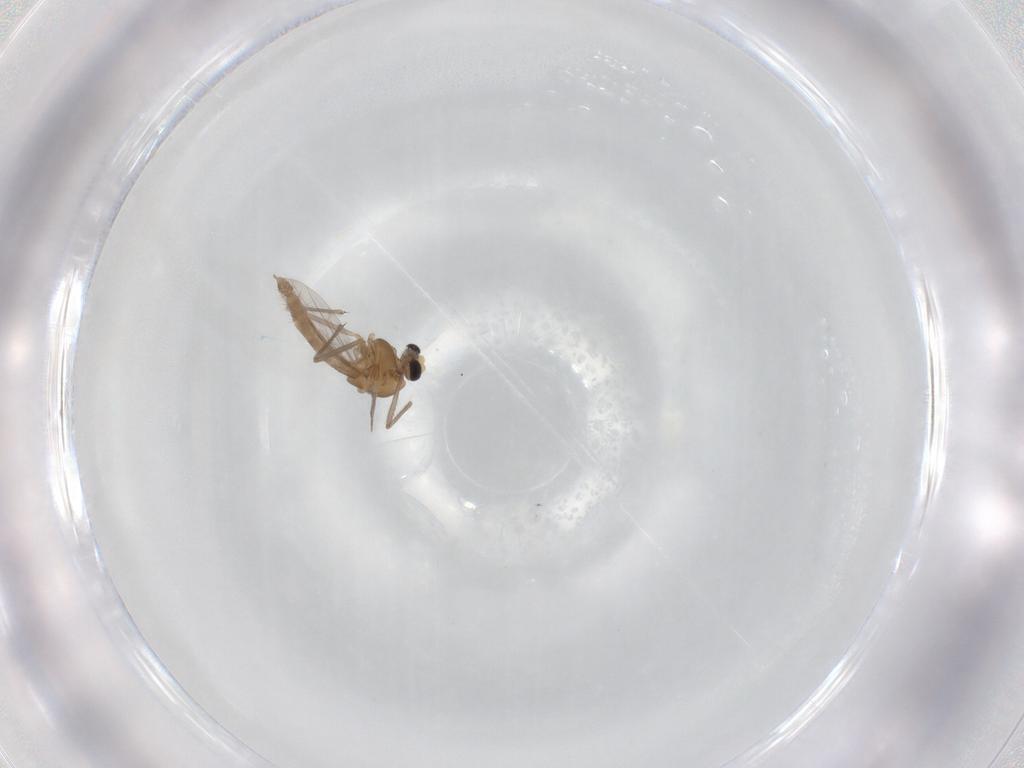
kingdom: Animalia
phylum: Arthropoda
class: Insecta
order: Diptera
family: Chironomidae
